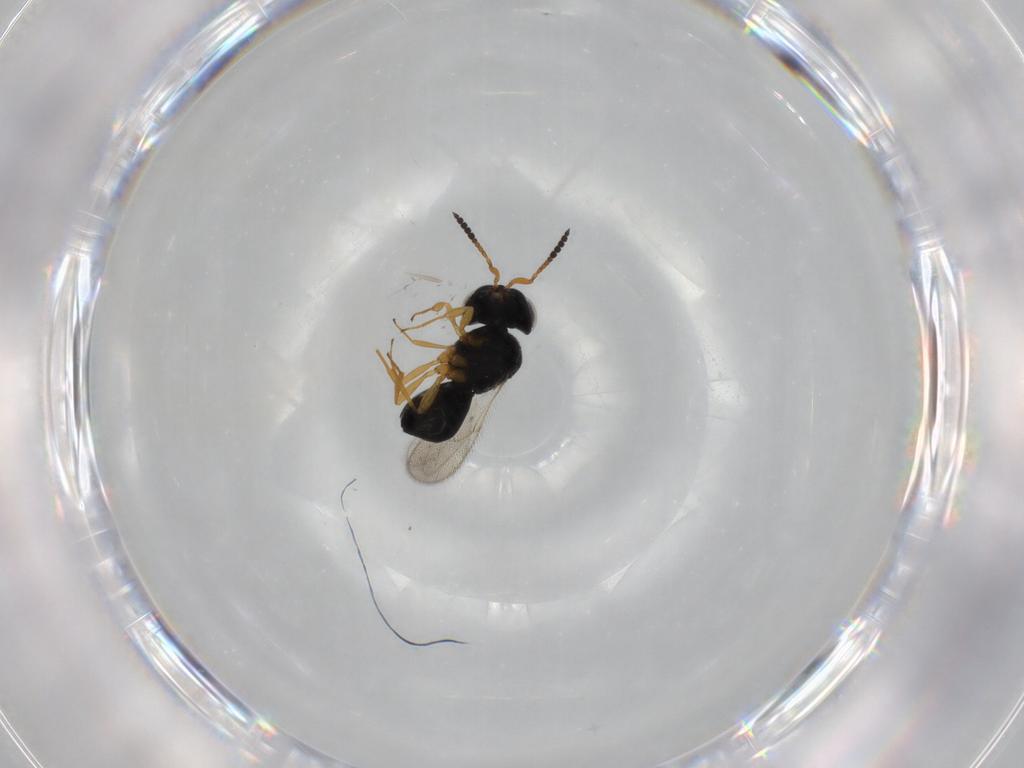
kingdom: Animalia
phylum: Arthropoda
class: Insecta
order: Hymenoptera
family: Scelionidae
